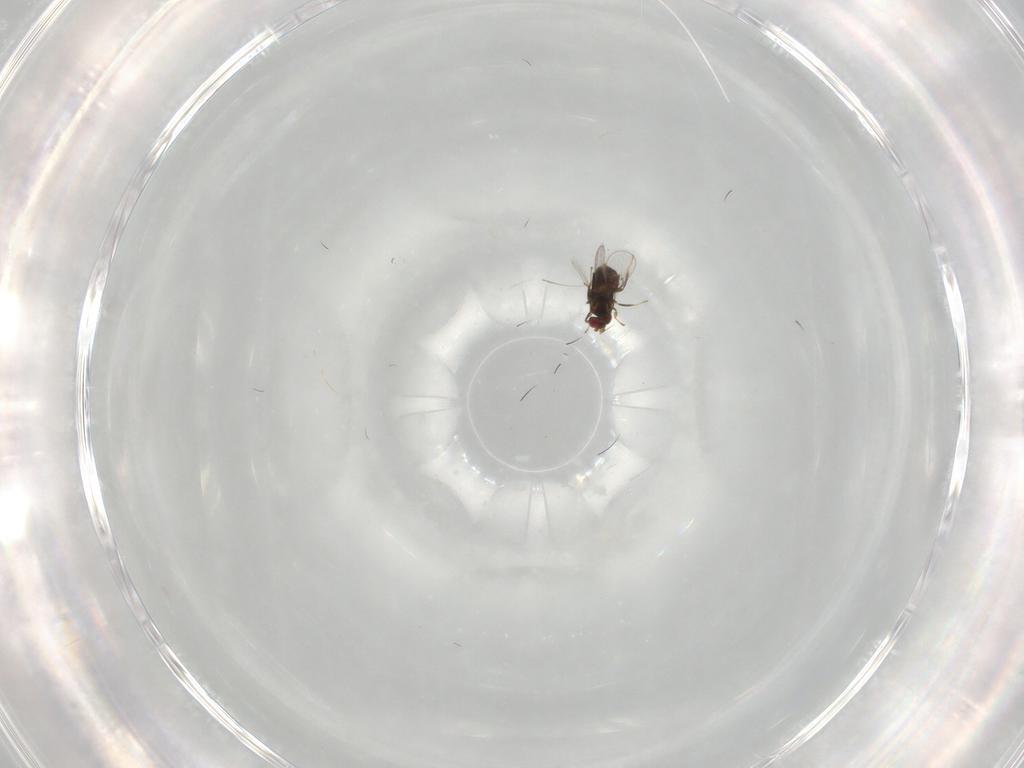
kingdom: Animalia
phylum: Arthropoda
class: Insecta
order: Hymenoptera
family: Trichogrammatidae
